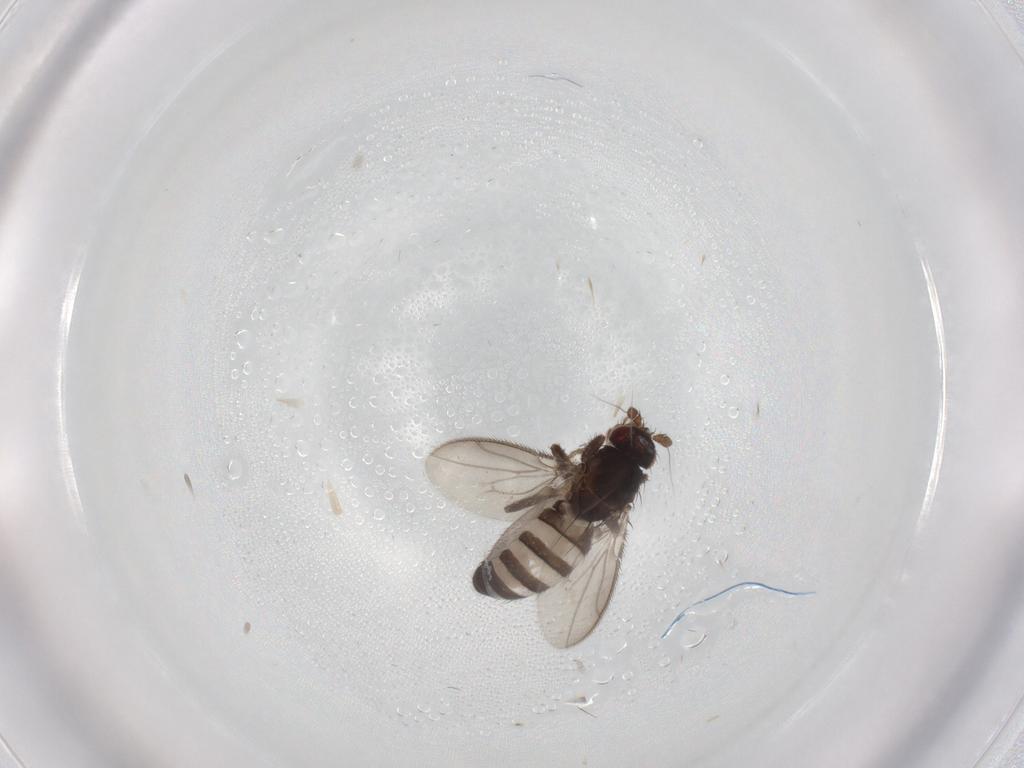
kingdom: Animalia
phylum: Arthropoda
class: Insecta
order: Diptera
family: Sphaeroceridae
